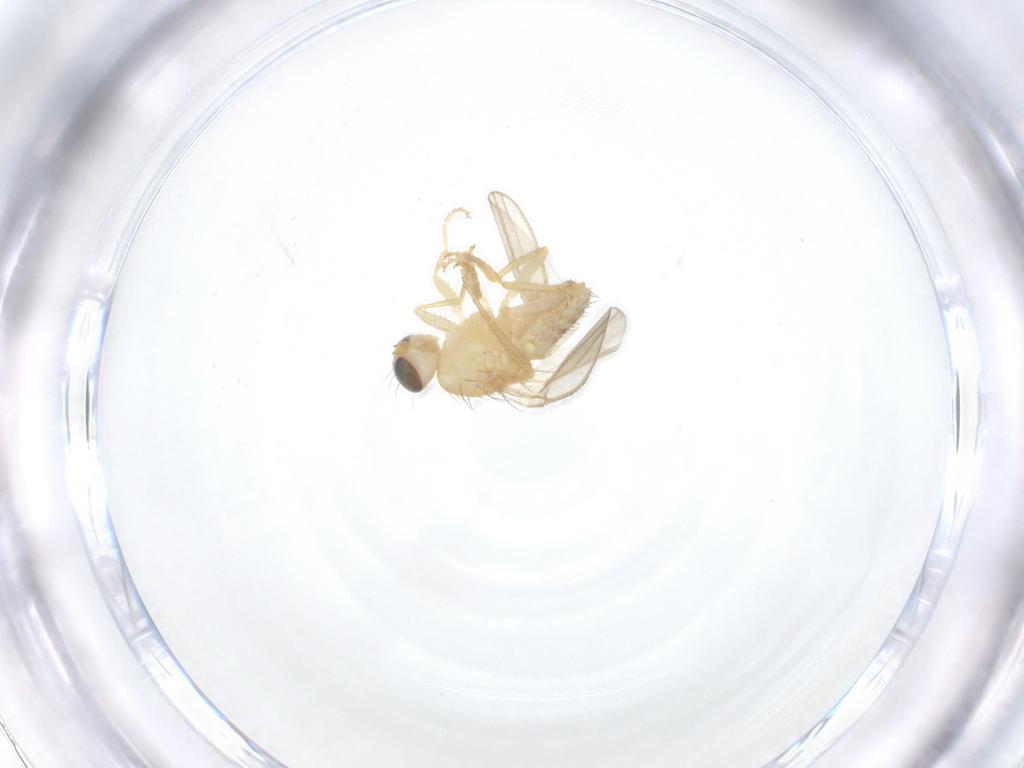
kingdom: Animalia
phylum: Arthropoda
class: Insecta
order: Diptera
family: Chyromyidae
